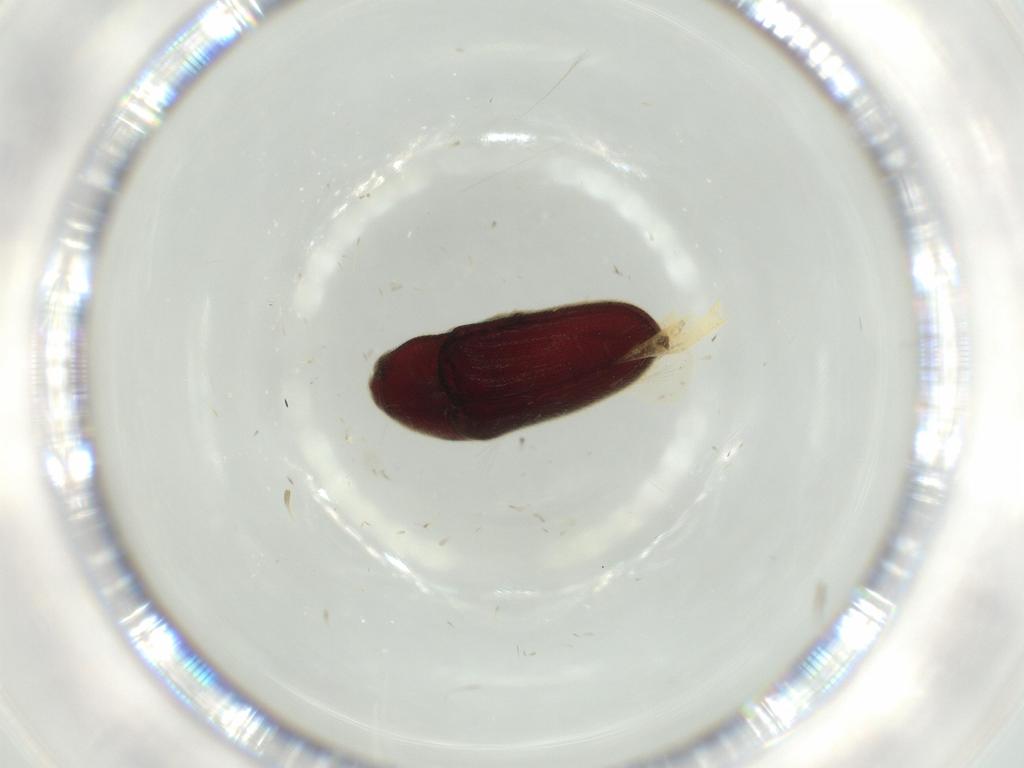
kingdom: Animalia
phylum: Arthropoda
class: Insecta
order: Coleoptera
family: Throscidae
